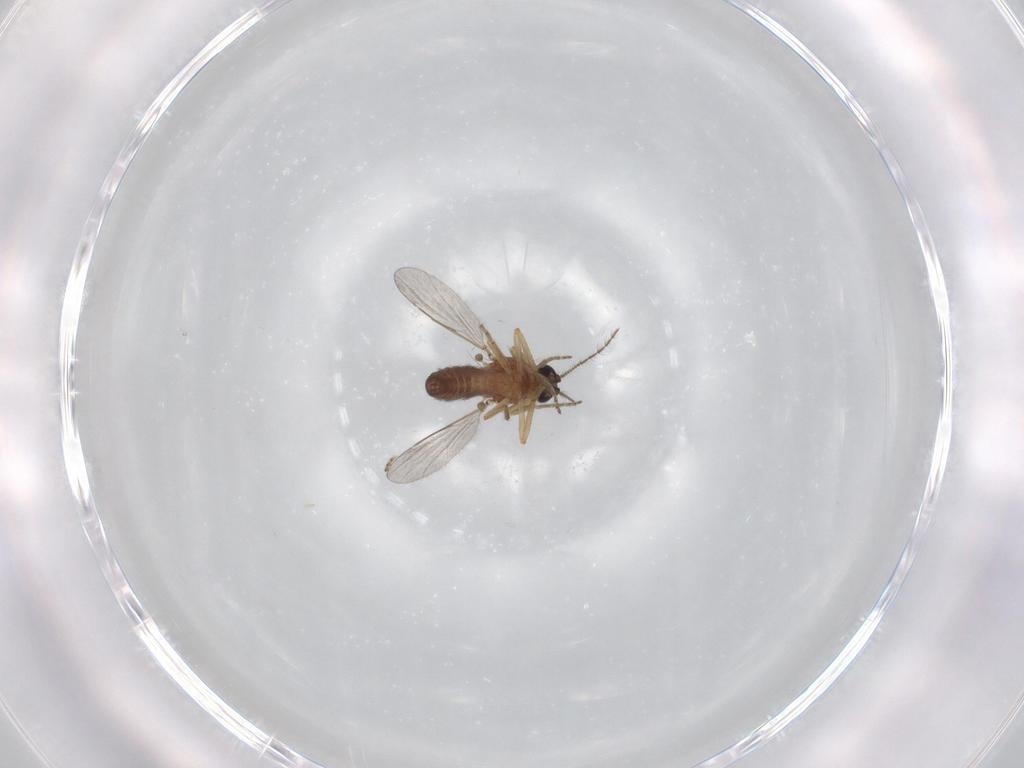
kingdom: Animalia
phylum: Arthropoda
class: Insecta
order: Diptera
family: Ceratopogonidae
